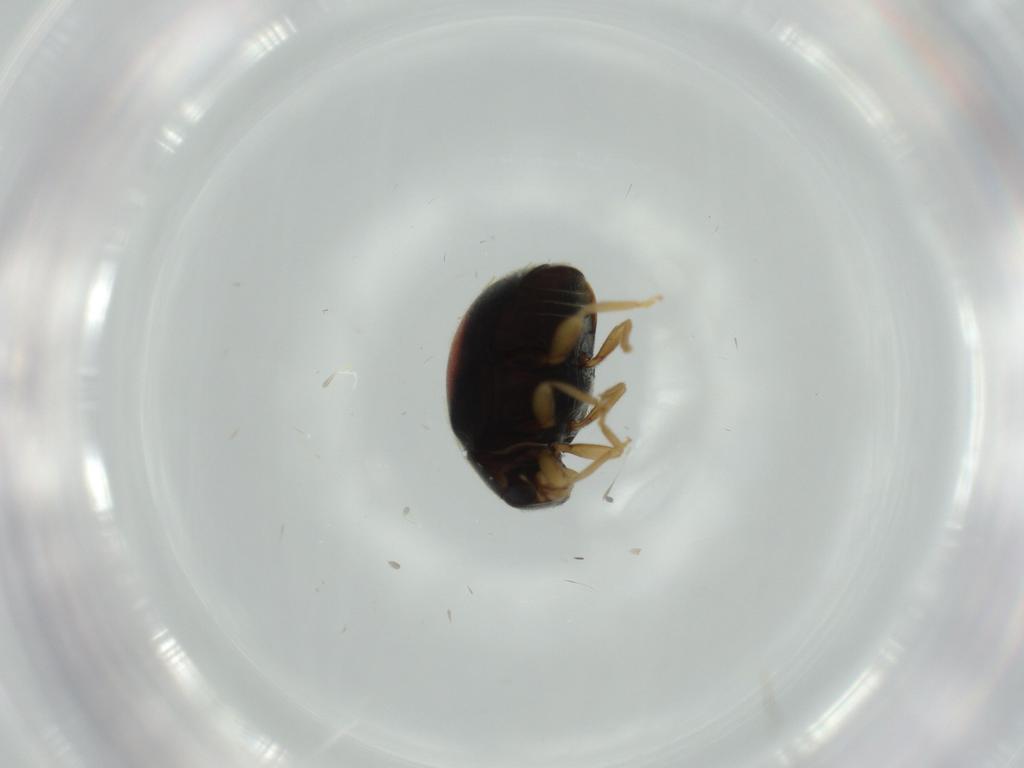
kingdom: Animalia
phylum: Arthropoda
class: Insecta
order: Coleoptera
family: Coccinellidae
